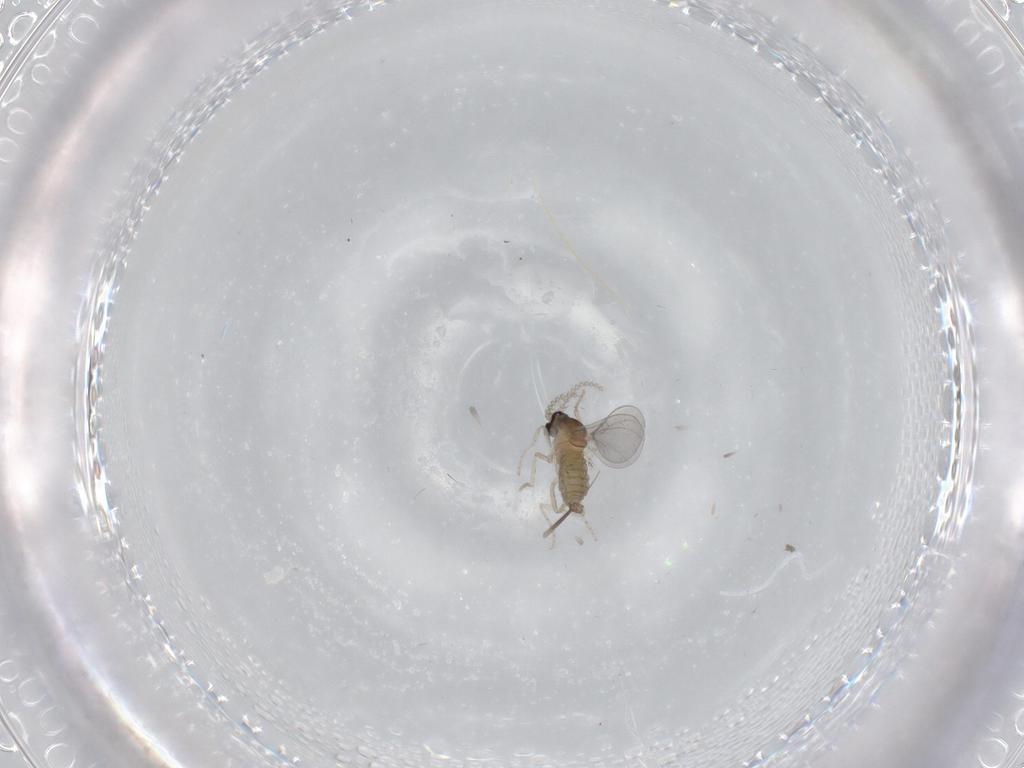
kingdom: Animalia
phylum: Arthropoda
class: Insecta
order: Diptera
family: Cecidomyiidae
